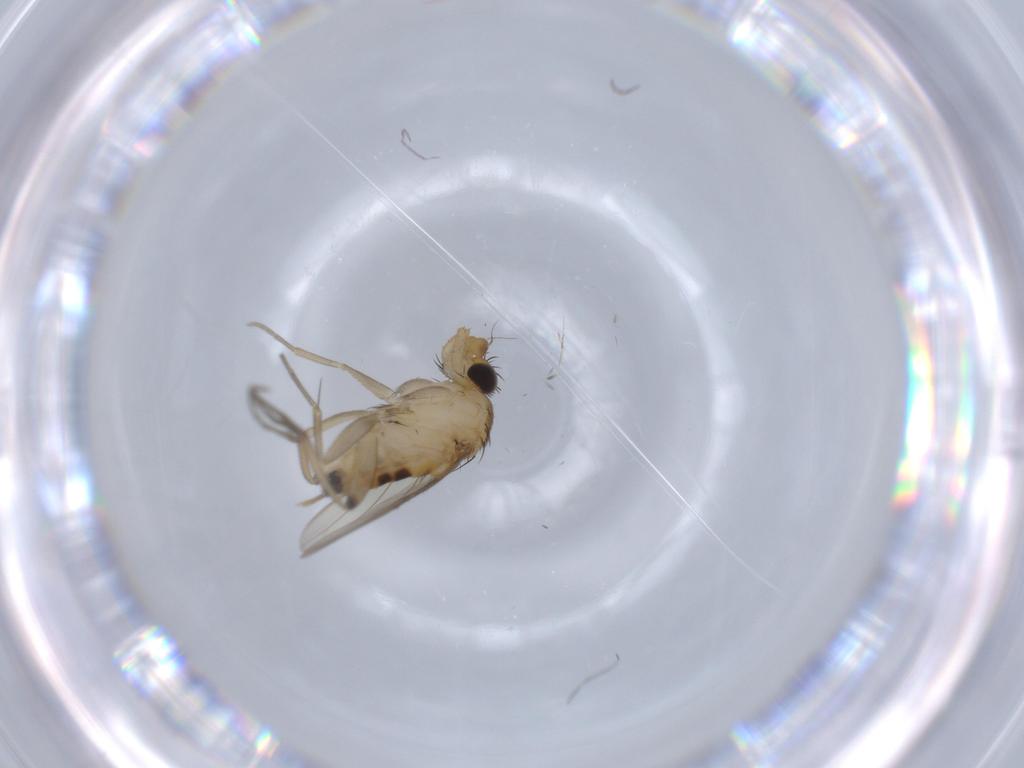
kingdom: Animalia
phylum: Arthropoda
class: Insecta
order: Diptera
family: Phoridae
